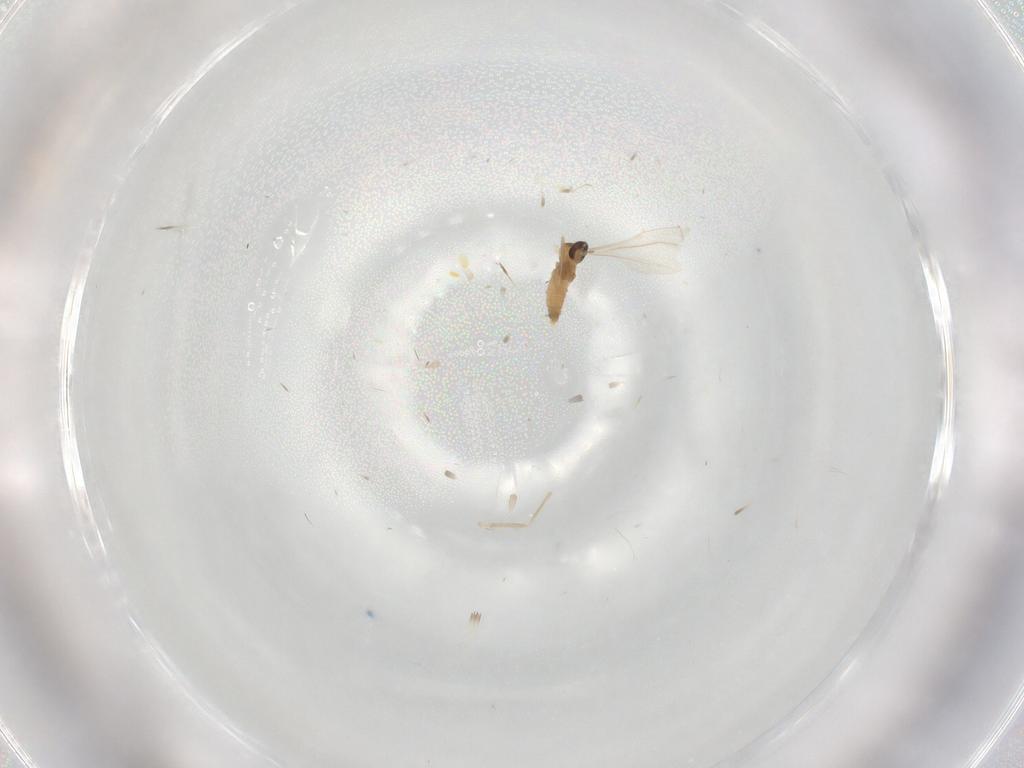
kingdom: Animalia
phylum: Arthropoda
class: Insecta
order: Diptera
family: Cecidomyiidae
